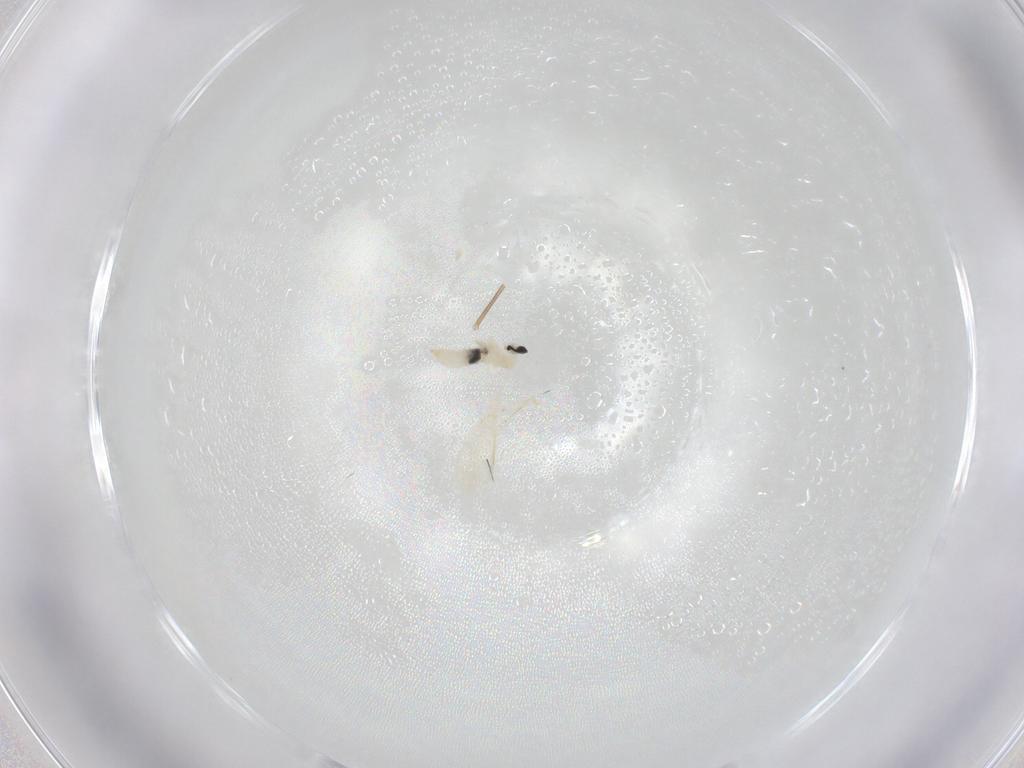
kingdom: Animalia
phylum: Arthropoda
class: Insecta
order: Diptera
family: Cecidomyiidae
